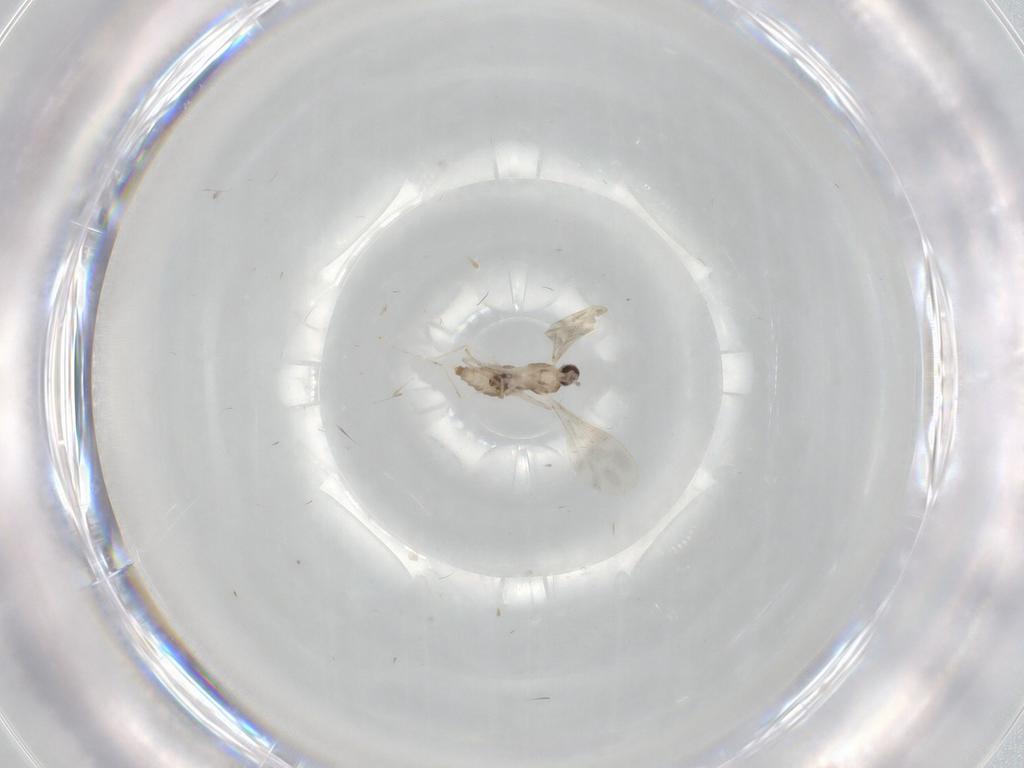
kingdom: Animalia
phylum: Arthropoda
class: Insecta
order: Diptera
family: Cecidomyiidae
